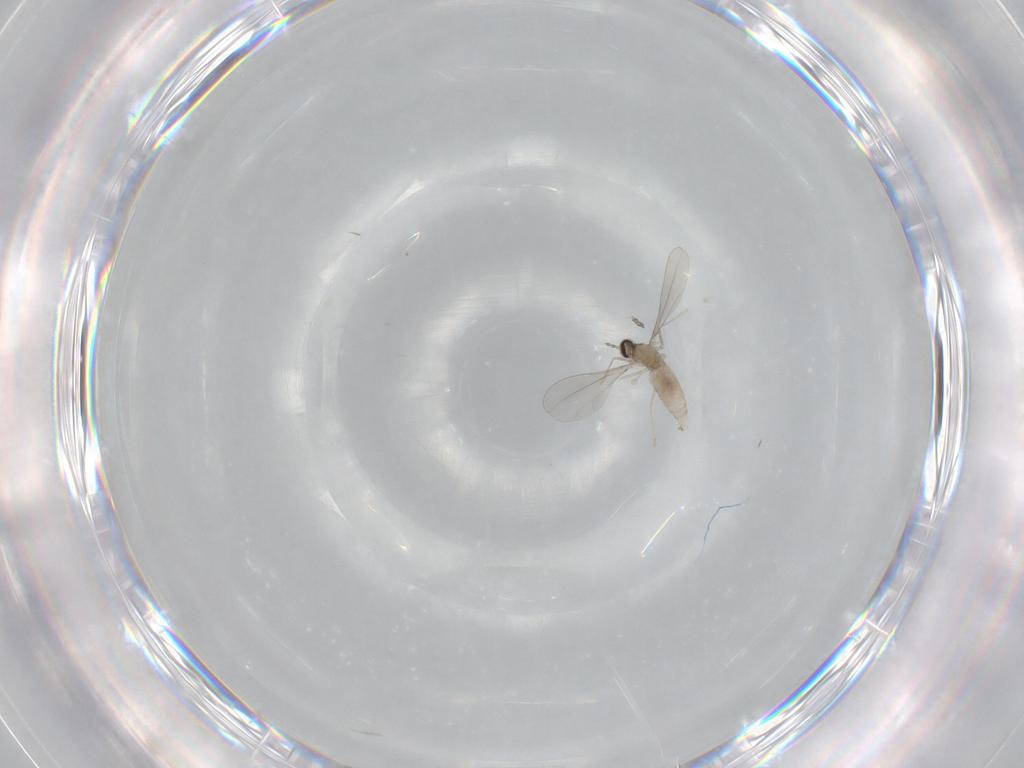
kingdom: Animalia
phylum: Arthropoda
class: Insecta
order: Diptera
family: Cecidomyiidae
